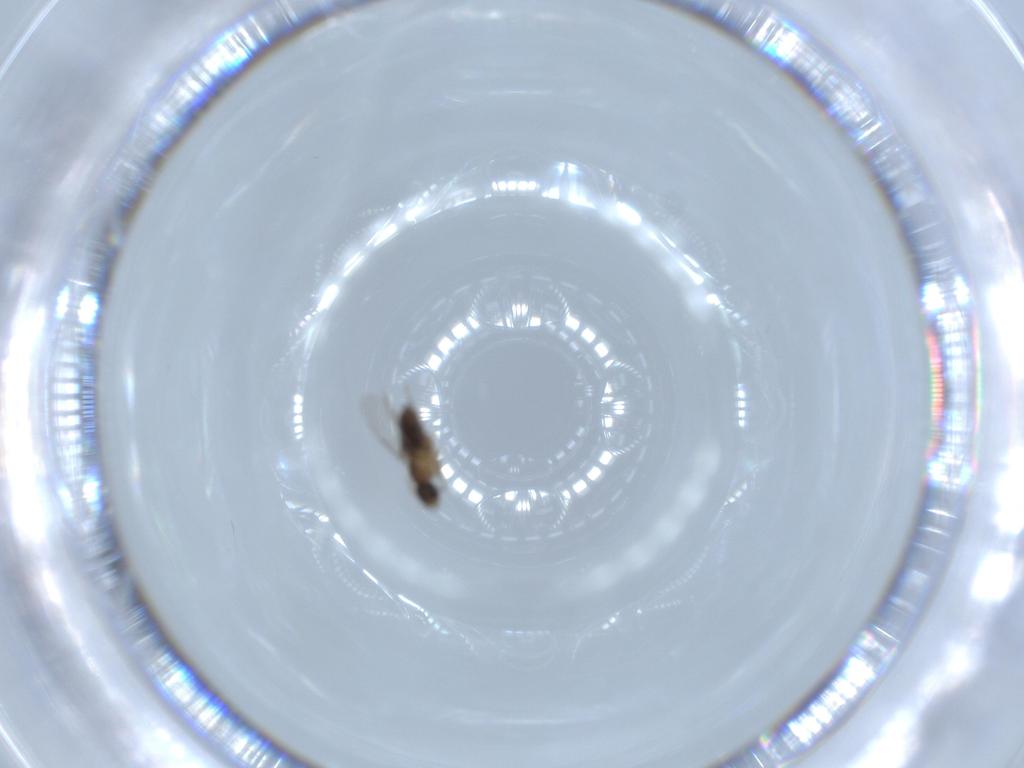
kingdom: Animalia
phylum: Arthropoda
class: Insecta
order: Diptera
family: Phoridae
